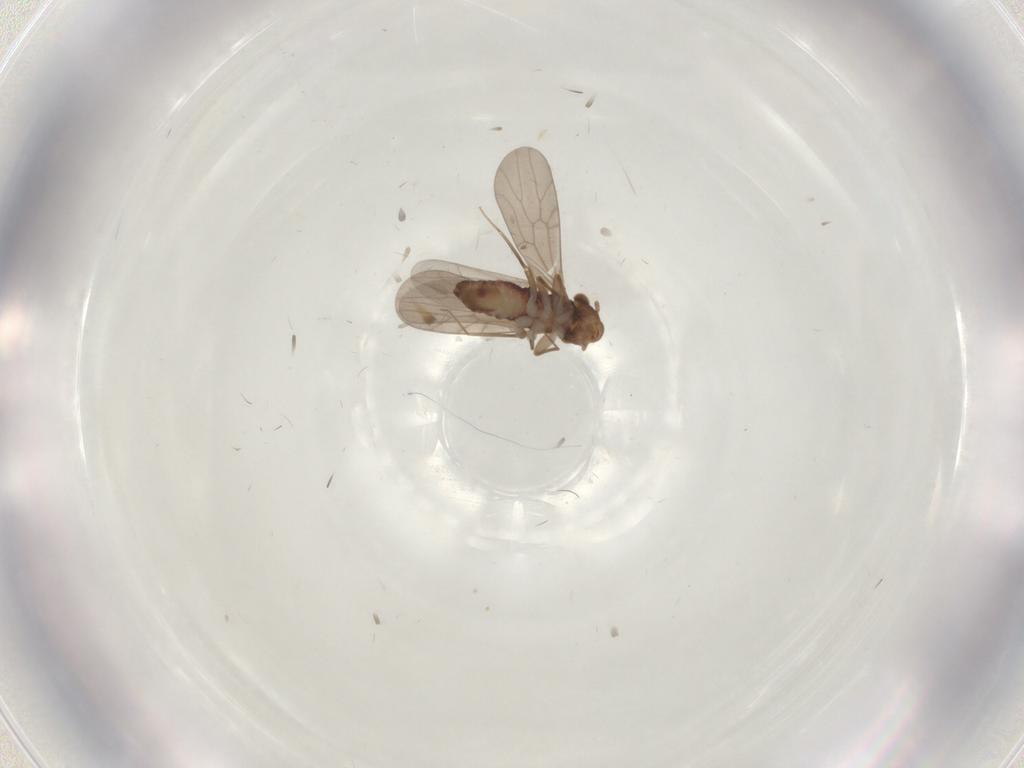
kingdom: Animalia
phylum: Arthropoda
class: Insecta
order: Psocodea
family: Lepidopsocidae
